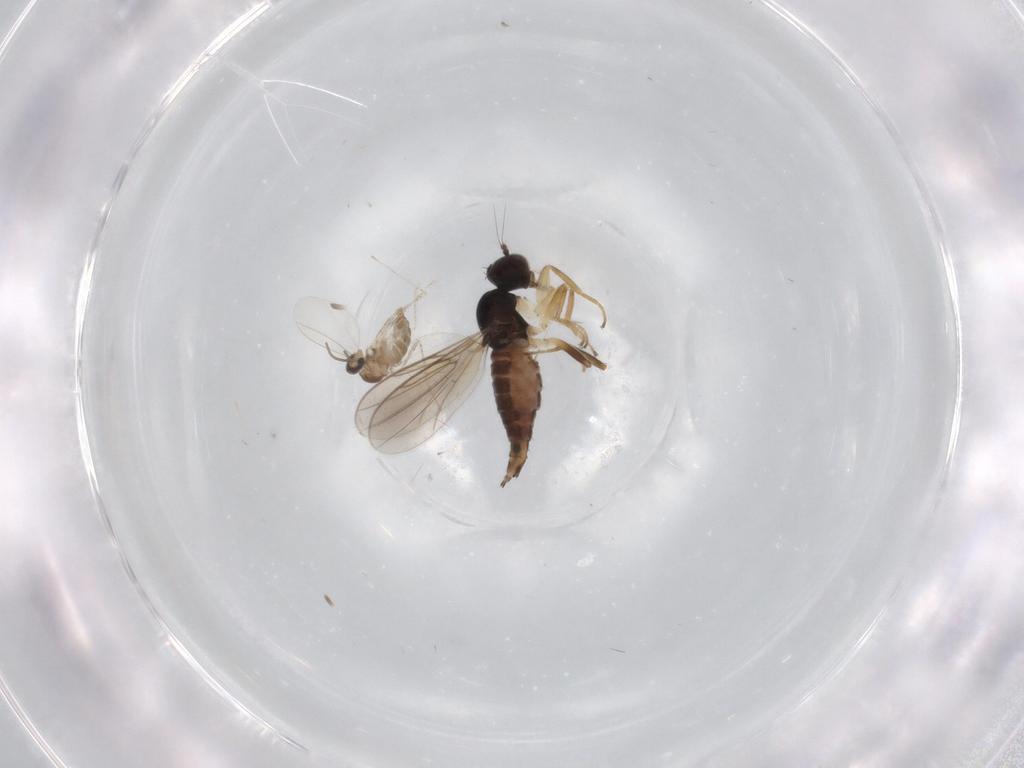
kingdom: Animalia
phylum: Arthropoda
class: Insecta
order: Diptera
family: Hybotidae
